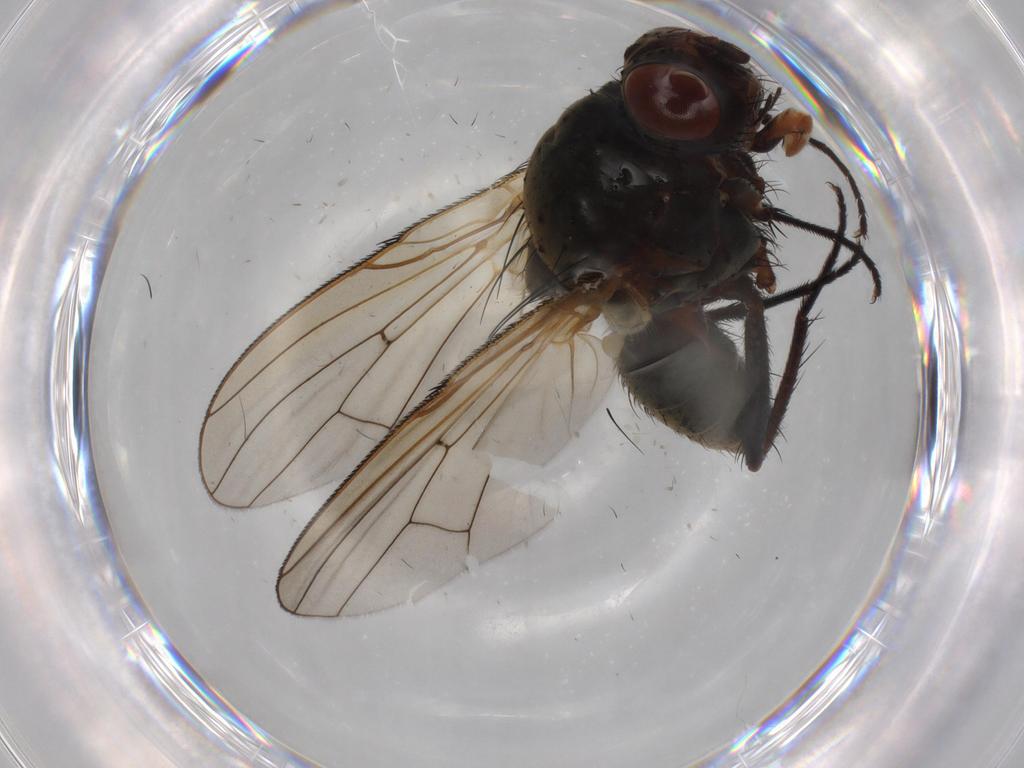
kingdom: Animalia
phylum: Arthropoda
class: Insecta
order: Diptera
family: Anthomyiidae
